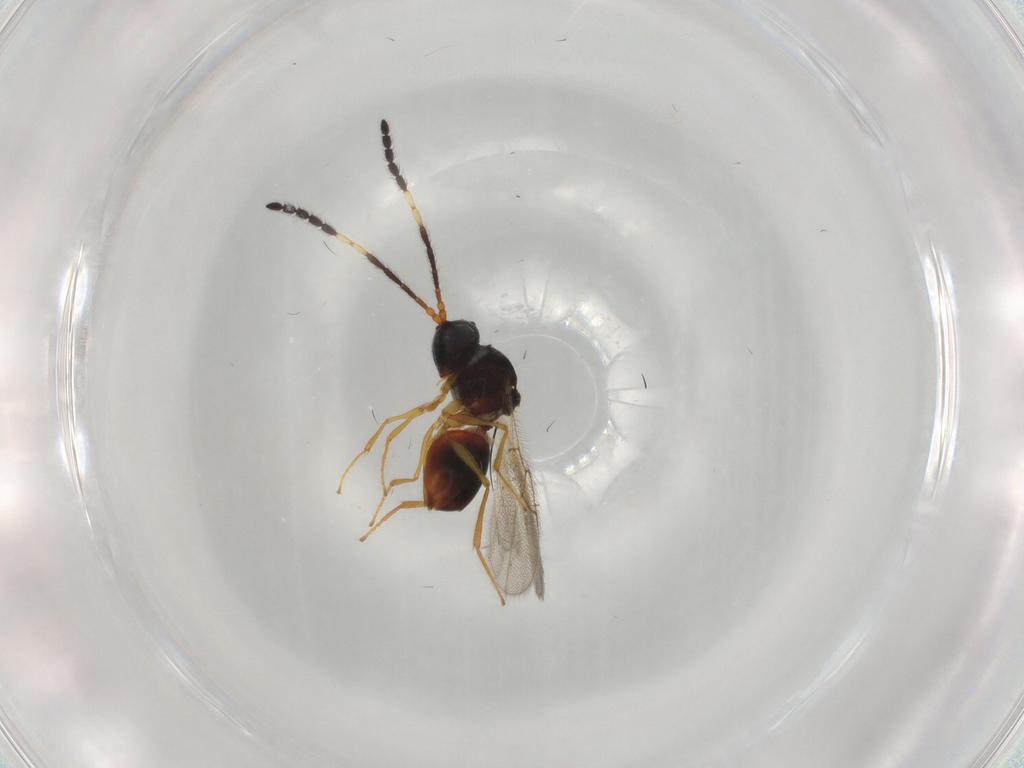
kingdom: Animalia
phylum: Arthropoda
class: Insecta
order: Hymenoptera
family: Figitidae
